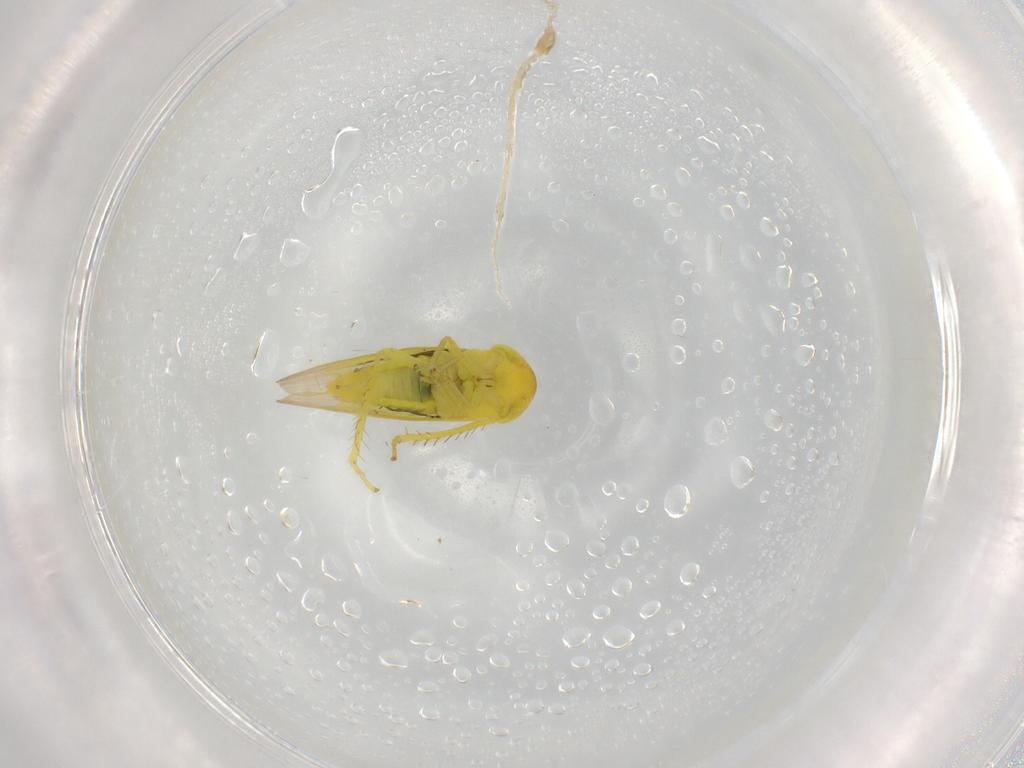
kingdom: Animalia
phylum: Arthropoda
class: Insecta
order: Hemiptera
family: Cicadellidae
